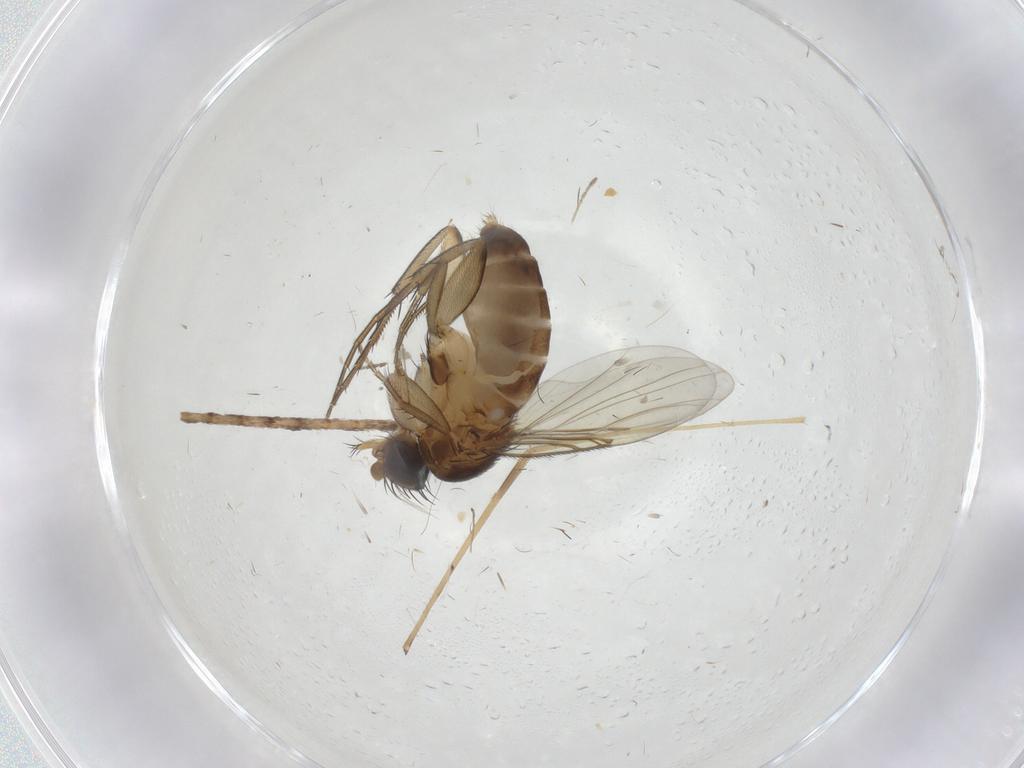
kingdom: Animalia
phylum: Arthropoda
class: Insecta
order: Diptera
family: Phoridae
